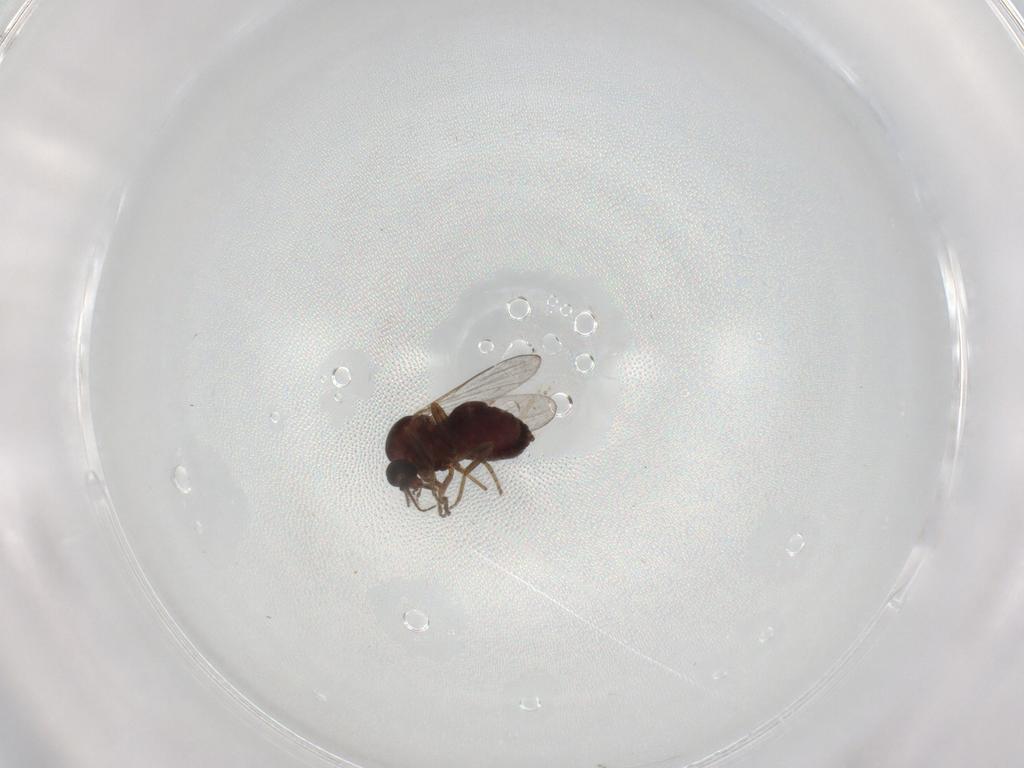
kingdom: Animalia
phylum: Arthropoda
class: Insecta
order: Diptera
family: Ceratopogonidae
